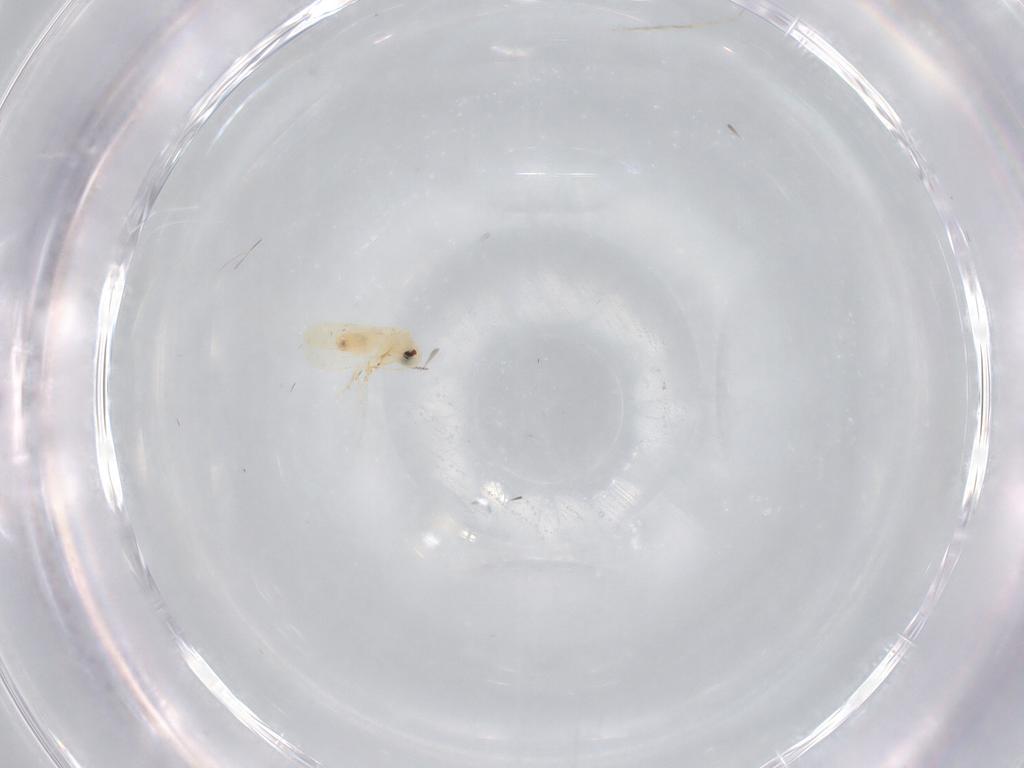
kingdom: Animalia
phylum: Arthropoda
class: Insecta
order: Hemiptera
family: Aleyrodidae
